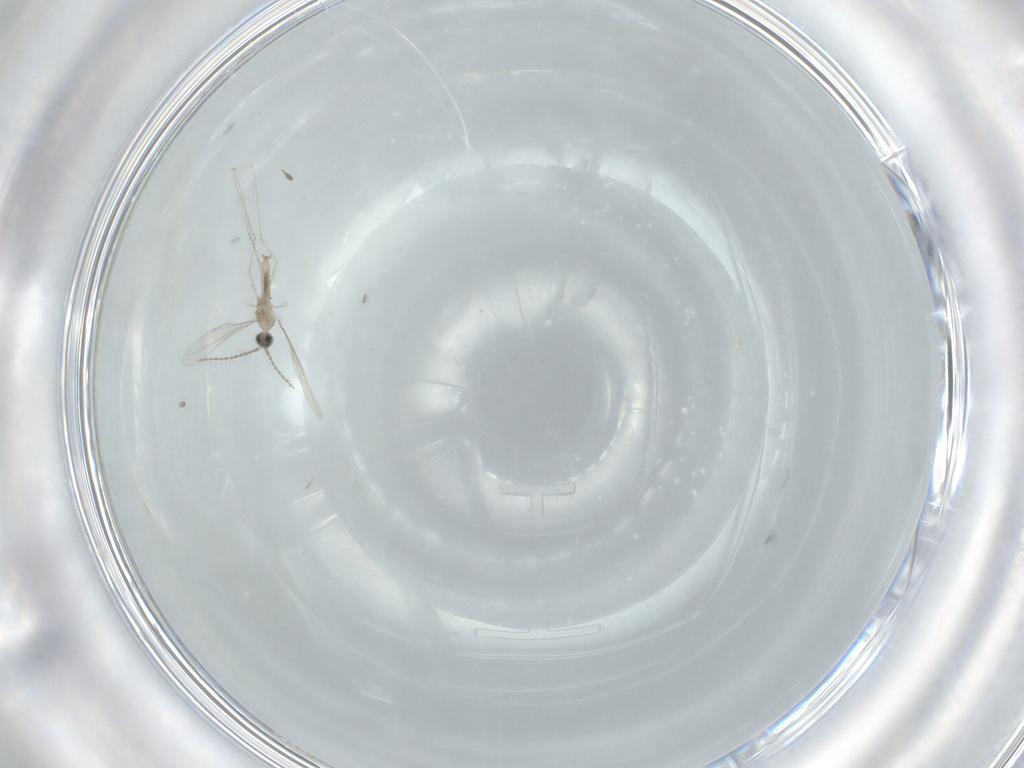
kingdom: Animalia
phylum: Arthropoda
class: Insecta
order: Diptera
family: Cecidomyiidae
